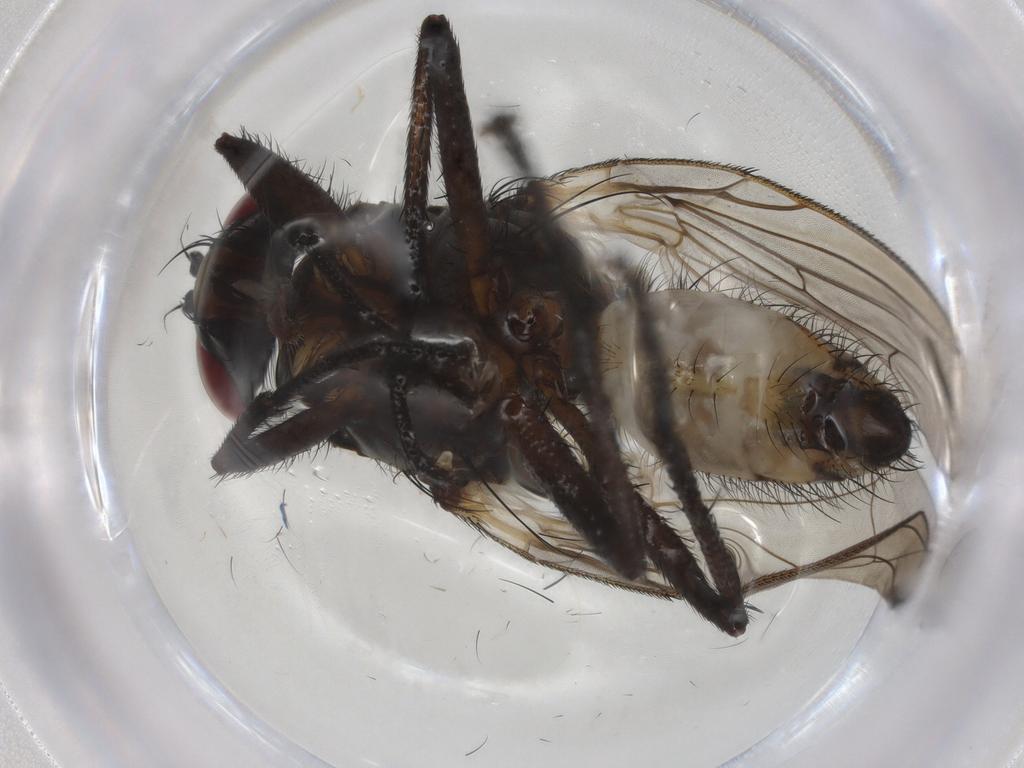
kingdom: Animalia
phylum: Arthropoda
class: Insecta
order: Diptera
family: Anthomyiidae
